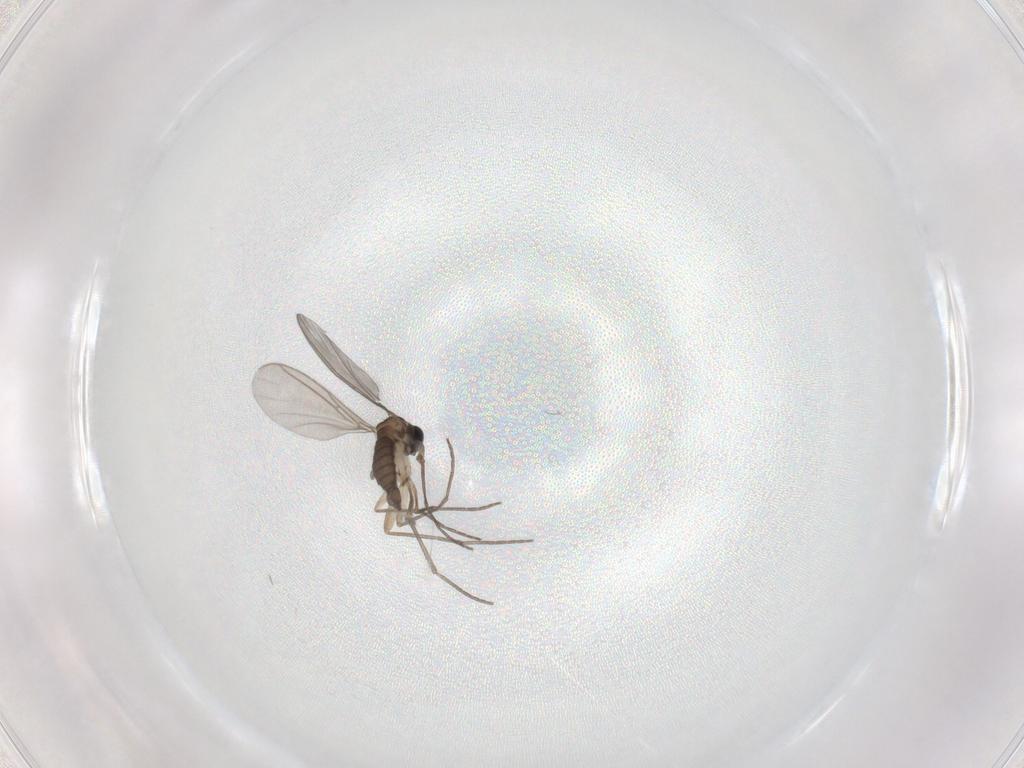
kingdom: Animalia
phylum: Arthropoda
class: Insecta
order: Diptera
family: Sciaridae
